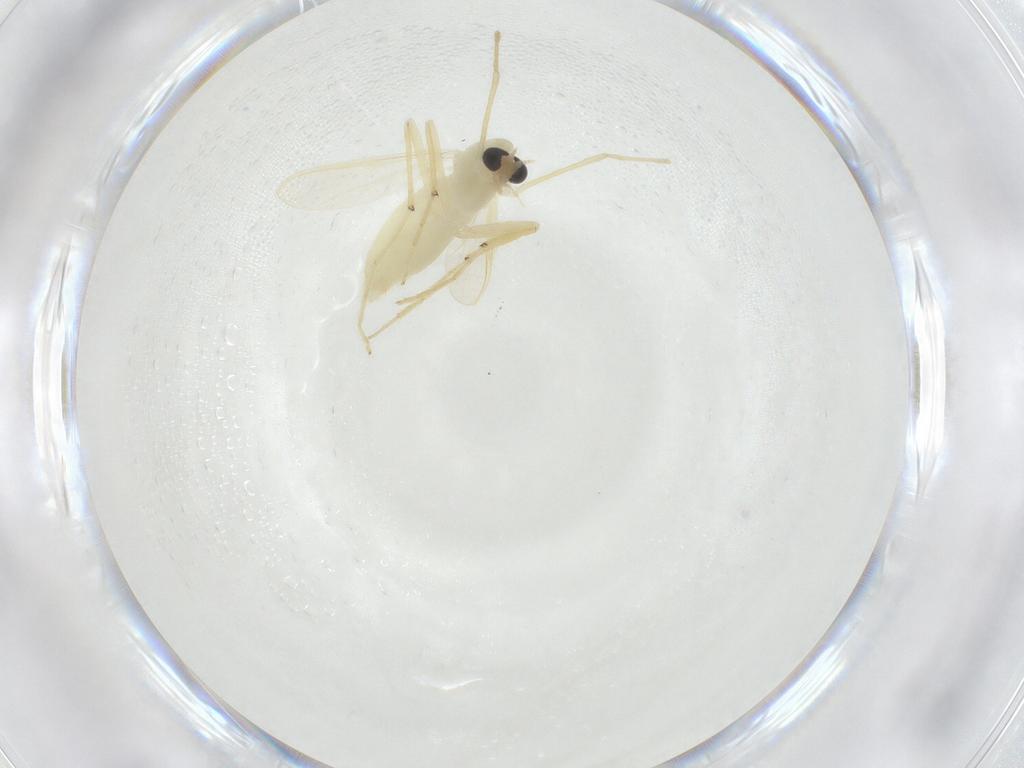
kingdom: Animalia
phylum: Arthropoda
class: Insecta
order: Diptera
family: Chironomidae
